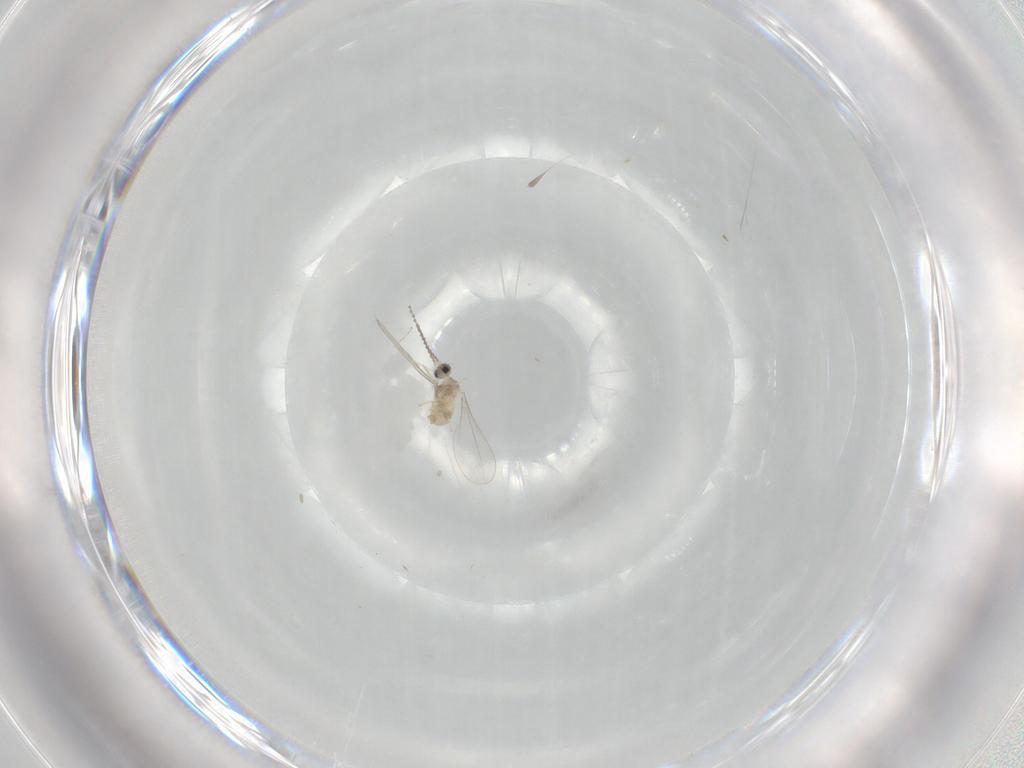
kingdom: Animalia
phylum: Arthropoda
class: Insecta
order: Diptera
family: Cecidomyiidae
